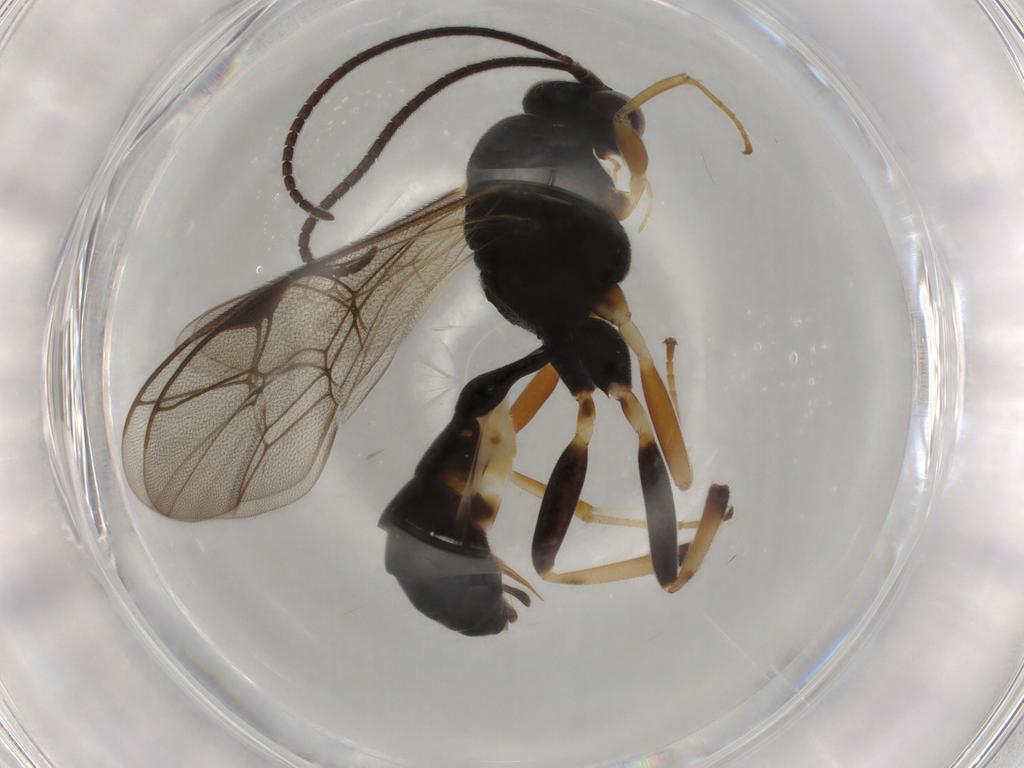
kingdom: Animalia
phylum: Arthropoda
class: Insecta
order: Hymenoptera
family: Ichneumonidae
